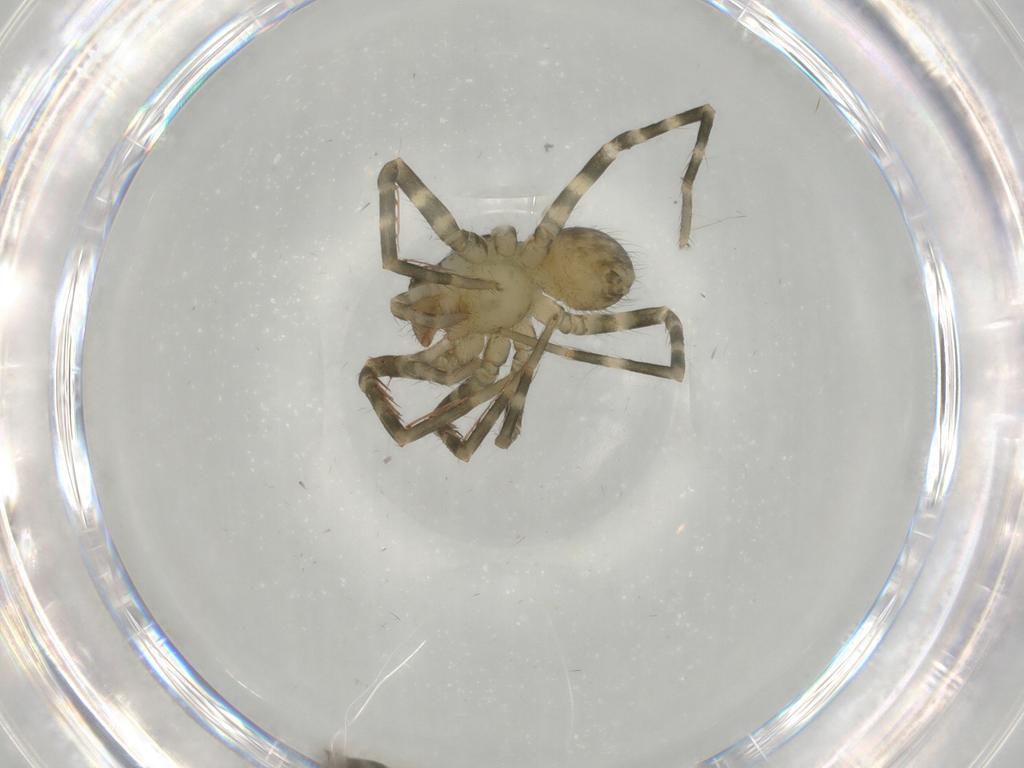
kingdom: Animalia
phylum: Arthropoda
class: Arachnida
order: Araneae
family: Ctenidae
